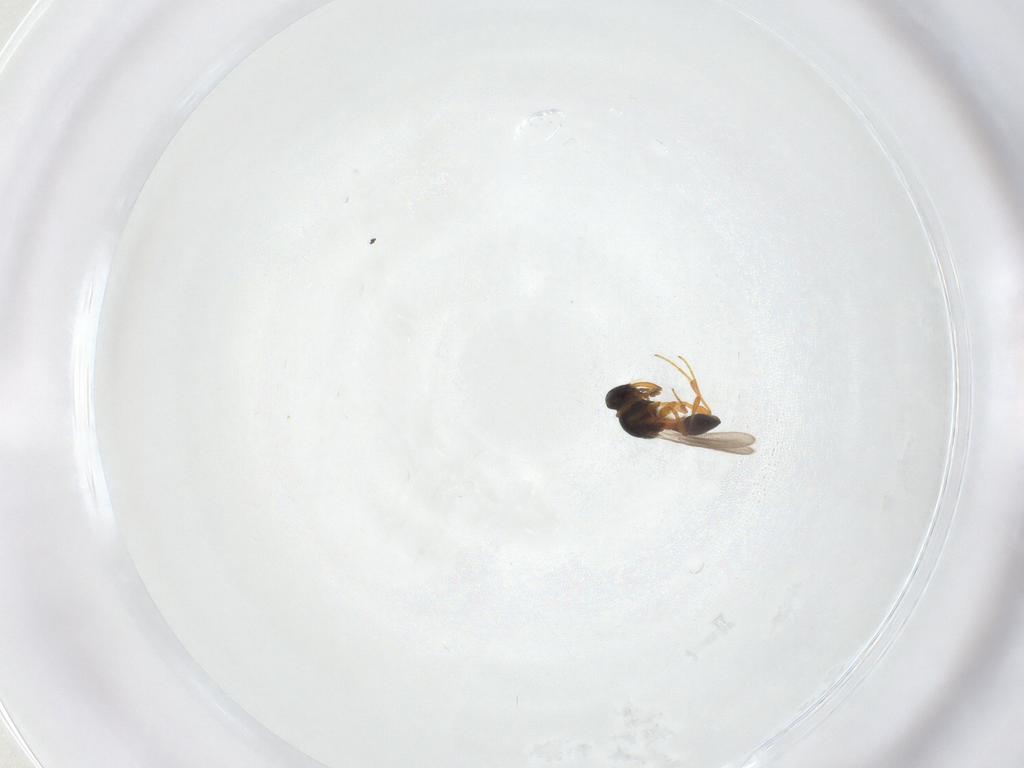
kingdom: Animalia
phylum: Arthropoda
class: Insecta
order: Hymenoptera
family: Platygastridae
